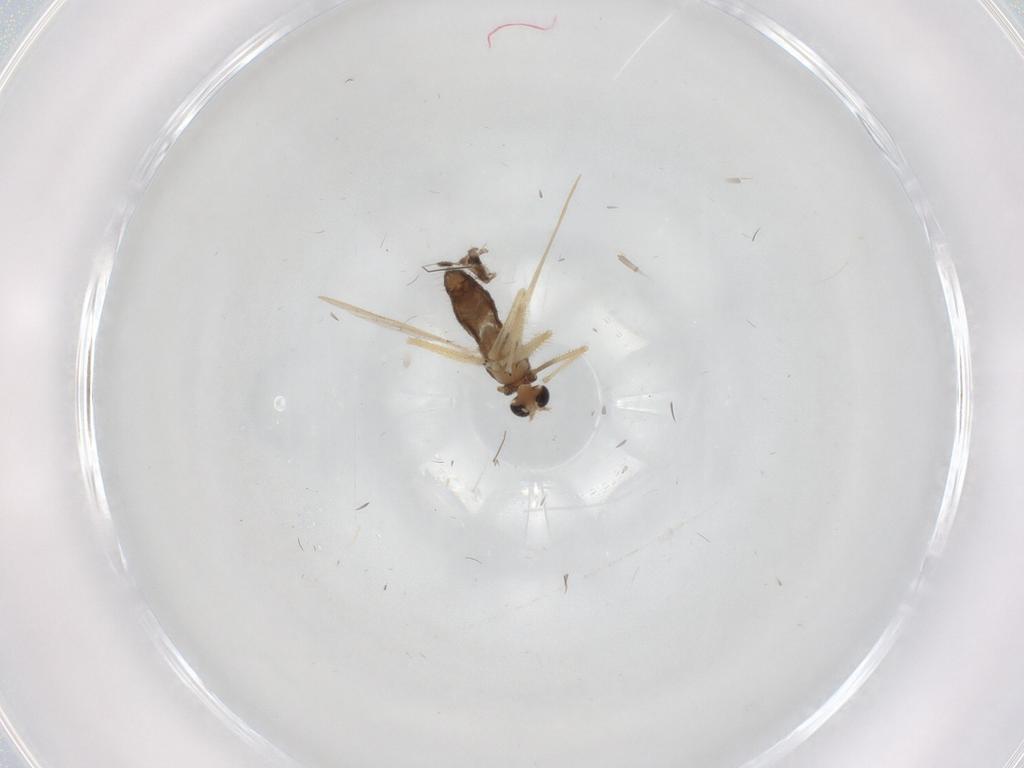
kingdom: Animalia
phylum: Arthropoda
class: Insecta
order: Diptera
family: Chironomidae
